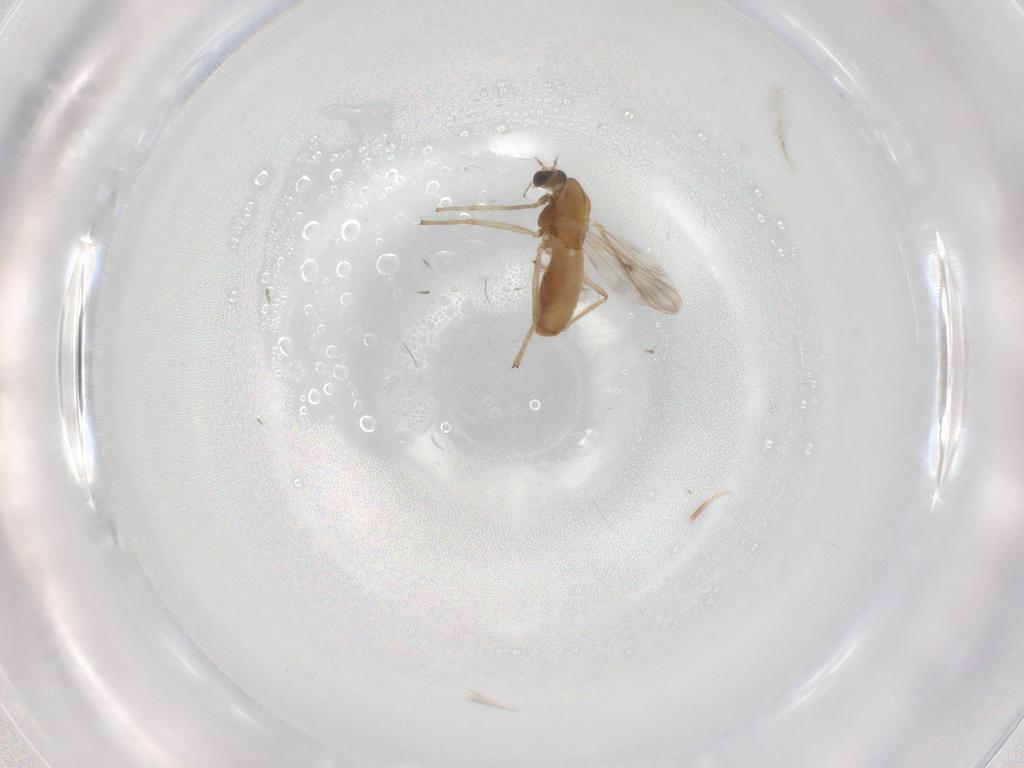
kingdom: Animalia
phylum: Arthropoda
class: Insecta
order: Diptera
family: Chironomidae
